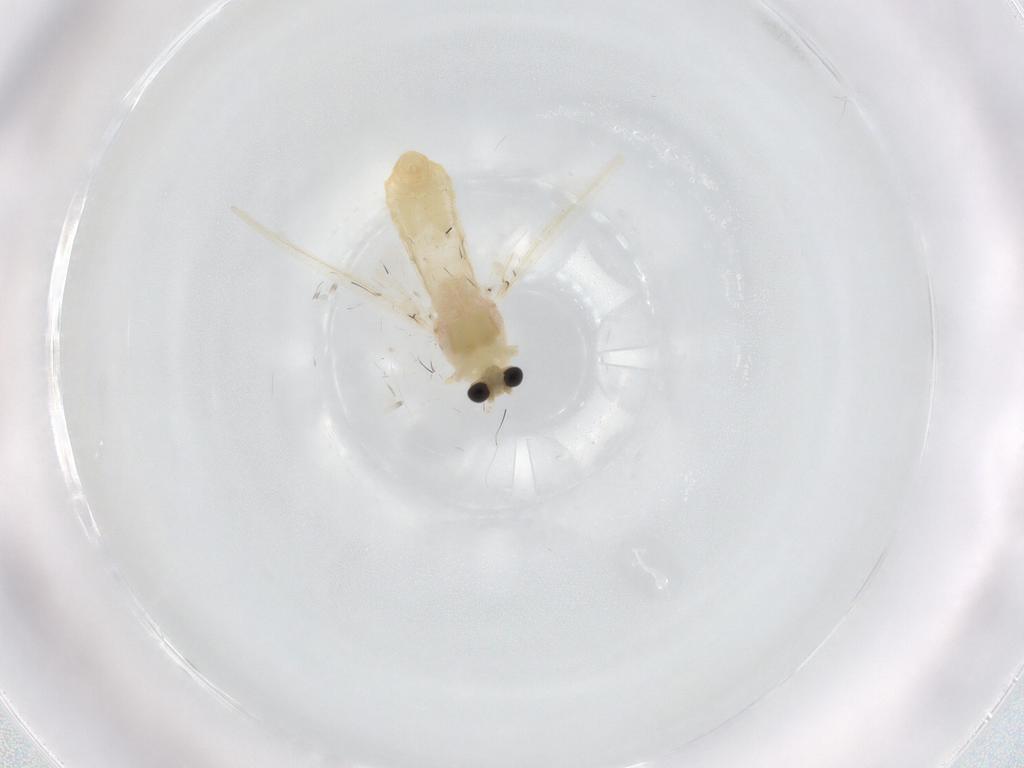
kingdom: Animalia
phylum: Arthropoda
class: Insecta
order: Diptera
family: Chironomidae
